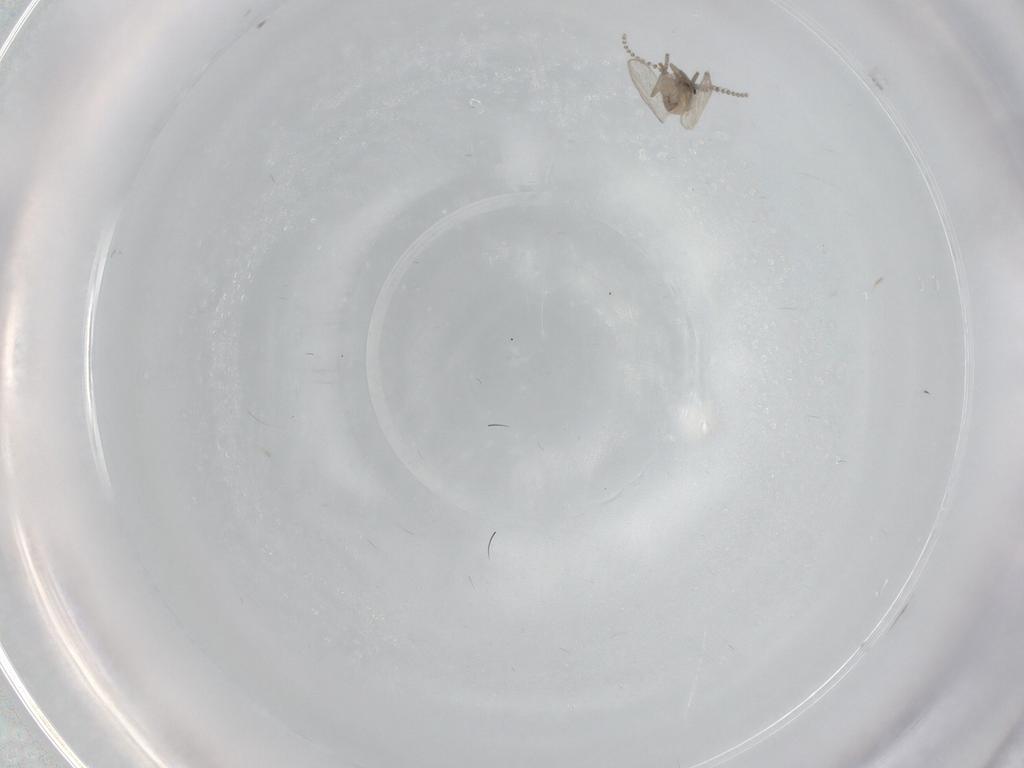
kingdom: Animalia
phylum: Arthropoda
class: Insecta
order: Diptera
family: Psychodidae
